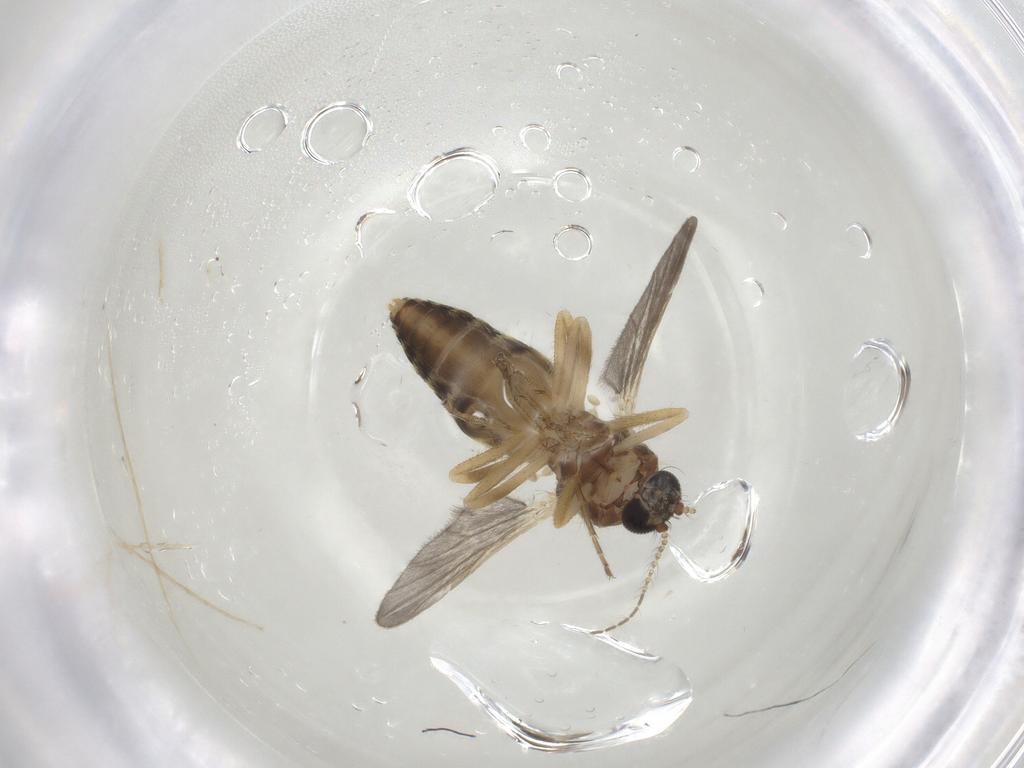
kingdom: Animalia
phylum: Arthropoda
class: Insecta
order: Diptera
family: Ceratopogonidae
